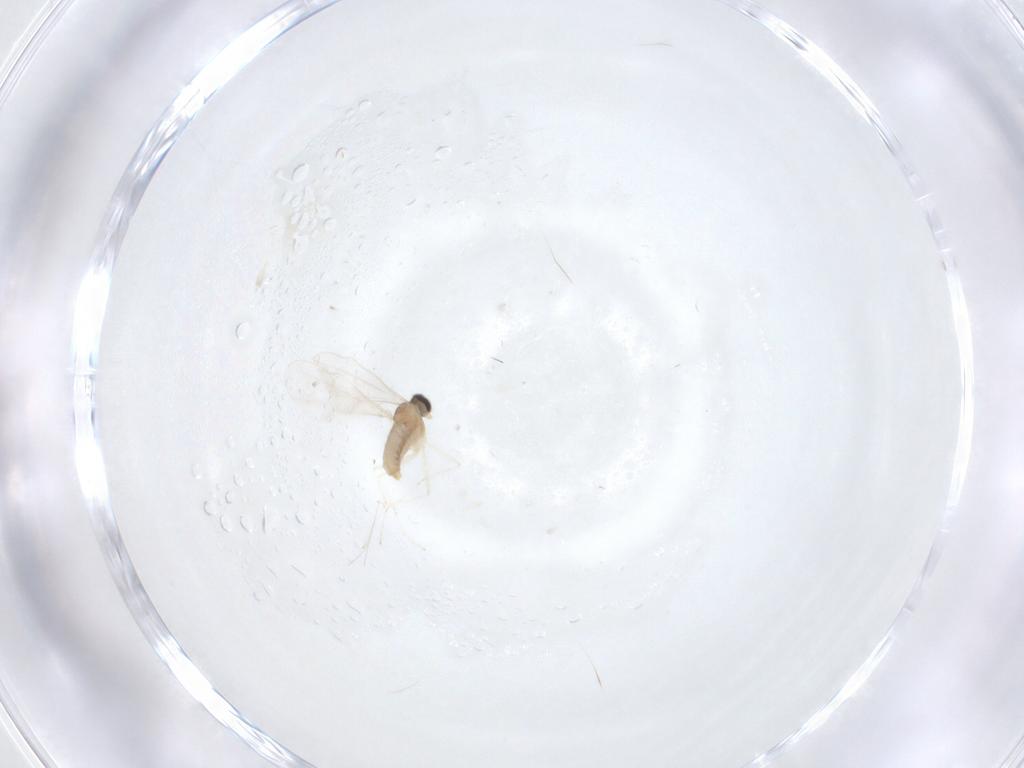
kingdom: Animalia
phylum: Arthropoda
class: Insecta
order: Diptera
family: Cecidomyiidae
